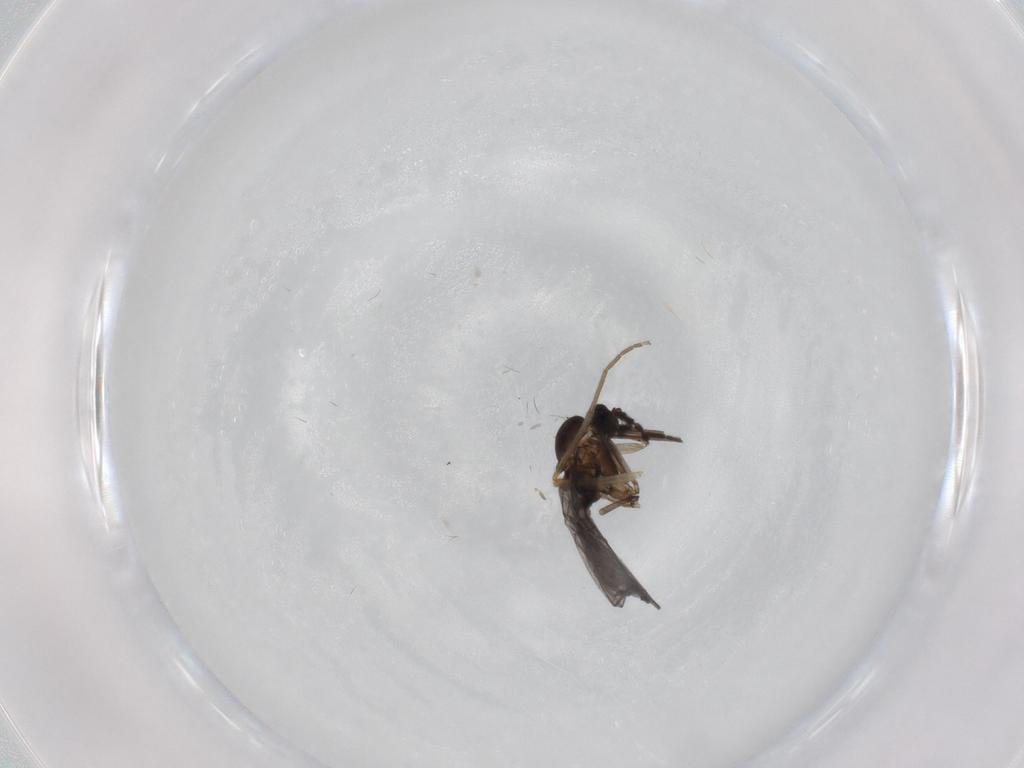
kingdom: Animalia
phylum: Arthropoda
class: Insecta
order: Diptera
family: Chironomidae
